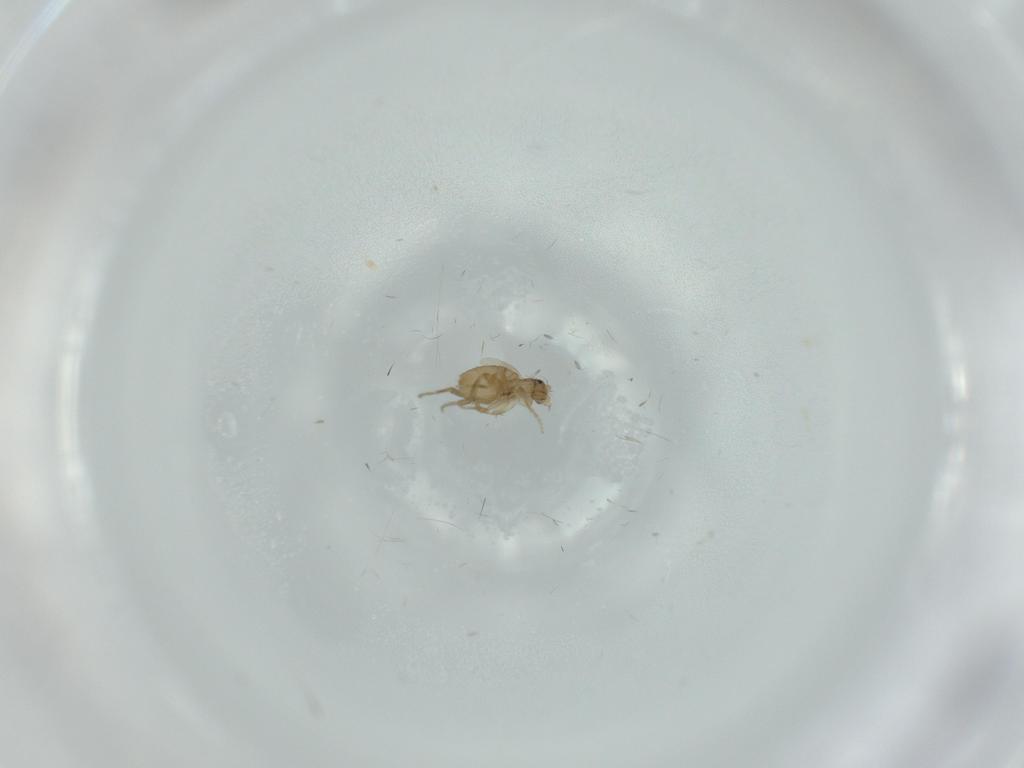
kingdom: Animalia
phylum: Arthropoda
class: Insecta
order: Diptera
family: Phoridae
